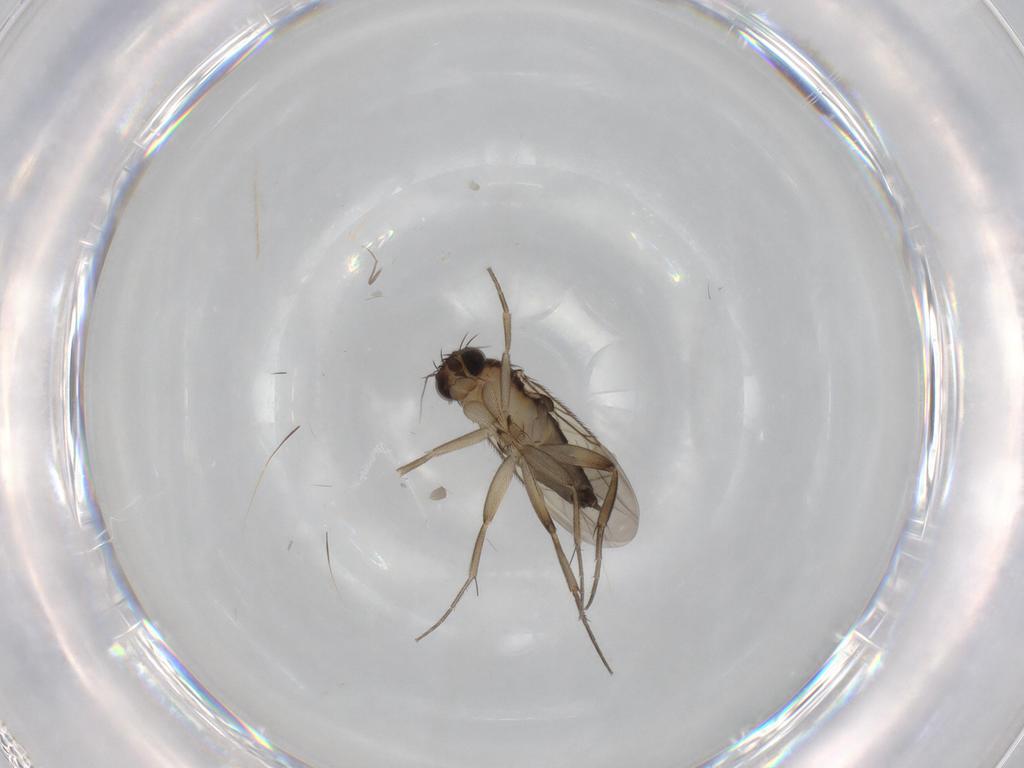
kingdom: Animalia
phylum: Arthropoda
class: Insecta
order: Diptera
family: Phoridae
